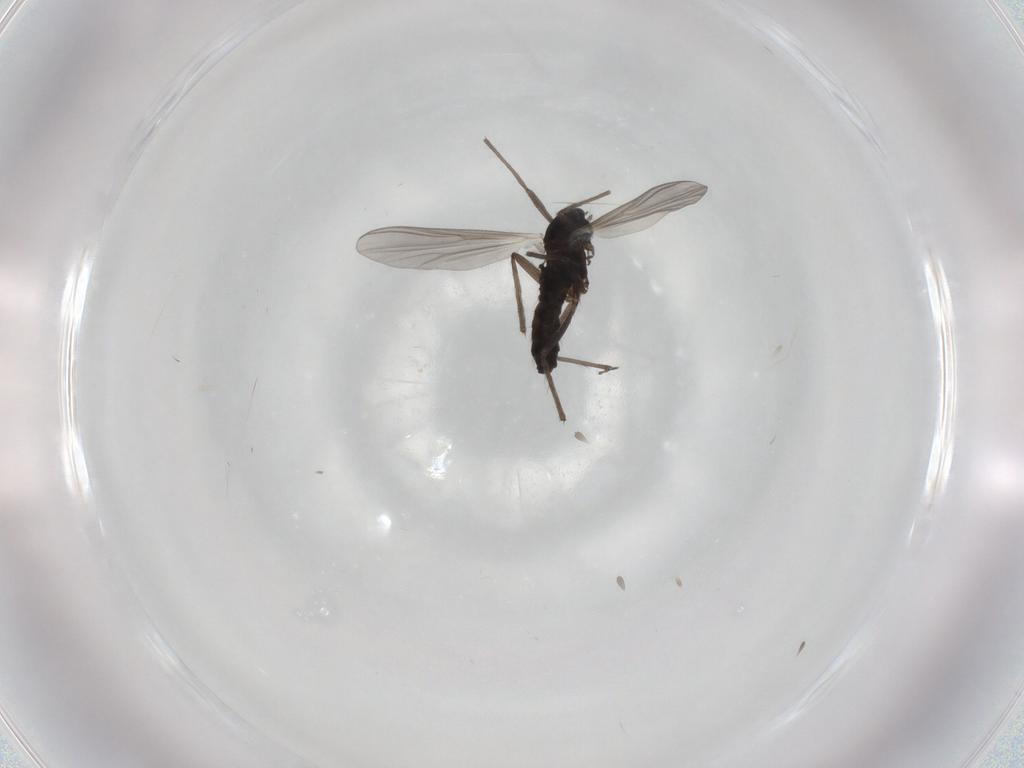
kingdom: Animalia
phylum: Arthropoda
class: Insecta
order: Diptera
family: Chironomidae
